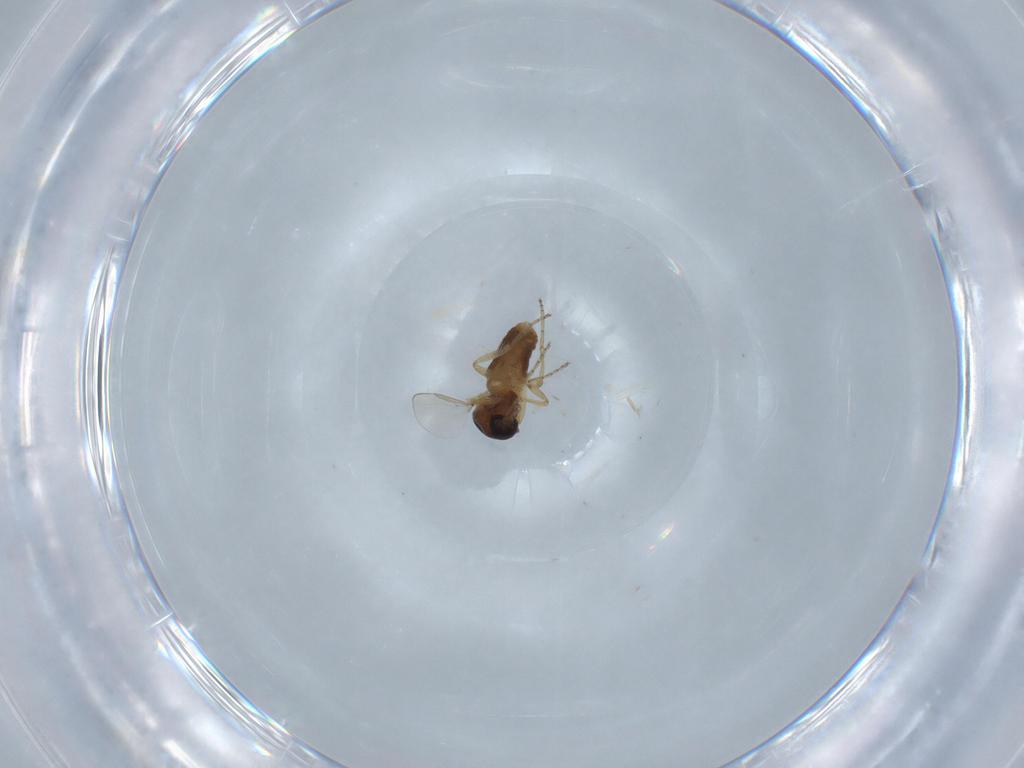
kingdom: Animalia
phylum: Arthropoda
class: Insecta
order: Diptera
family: Ceratopogonidae
